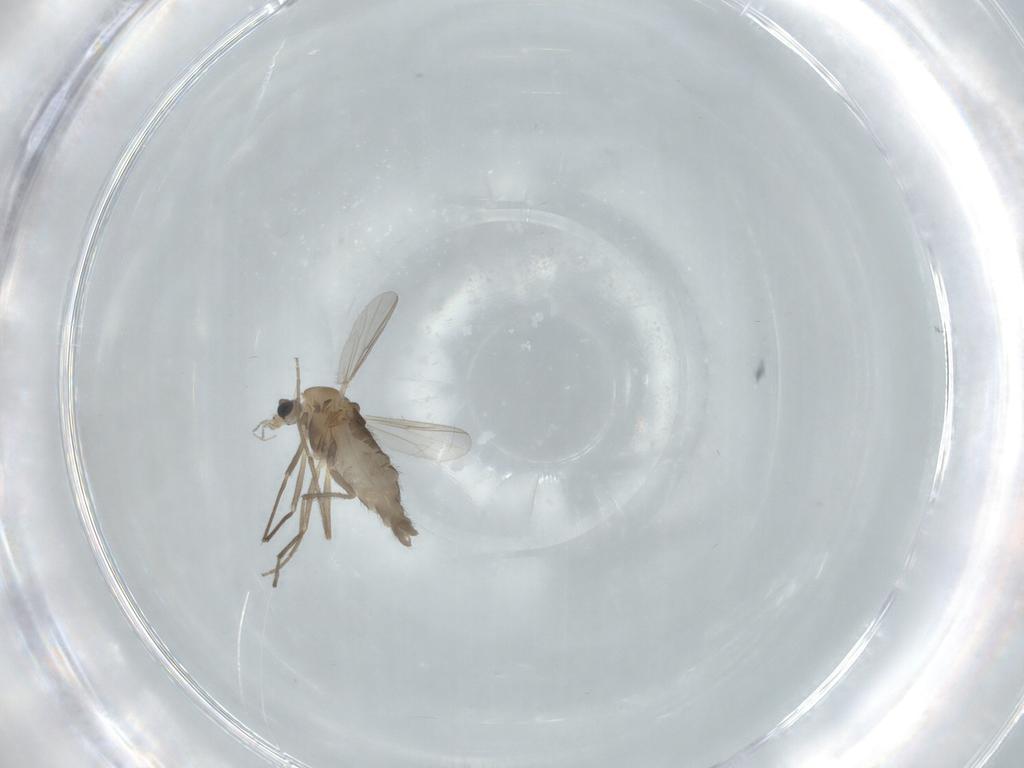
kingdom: Animalia
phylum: Arthropoda
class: Insecta
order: Diptera
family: Chironomidae
